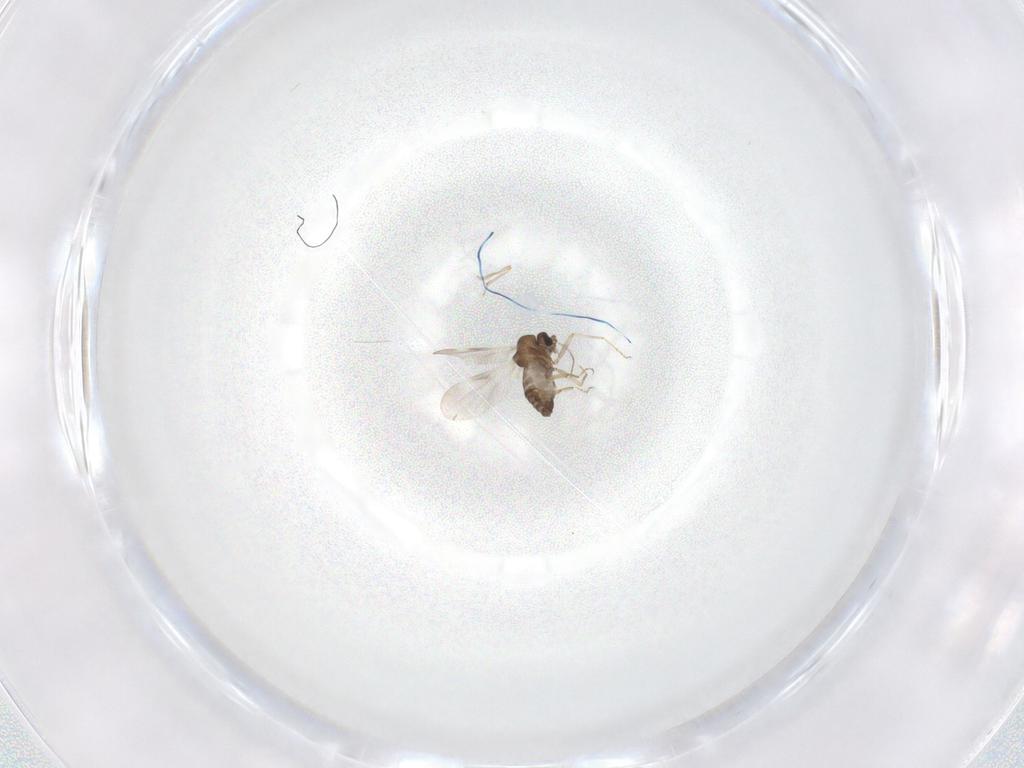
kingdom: Animalia
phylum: Arthropoda
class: Insecta
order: Diptera
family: Ceratopogonidae
